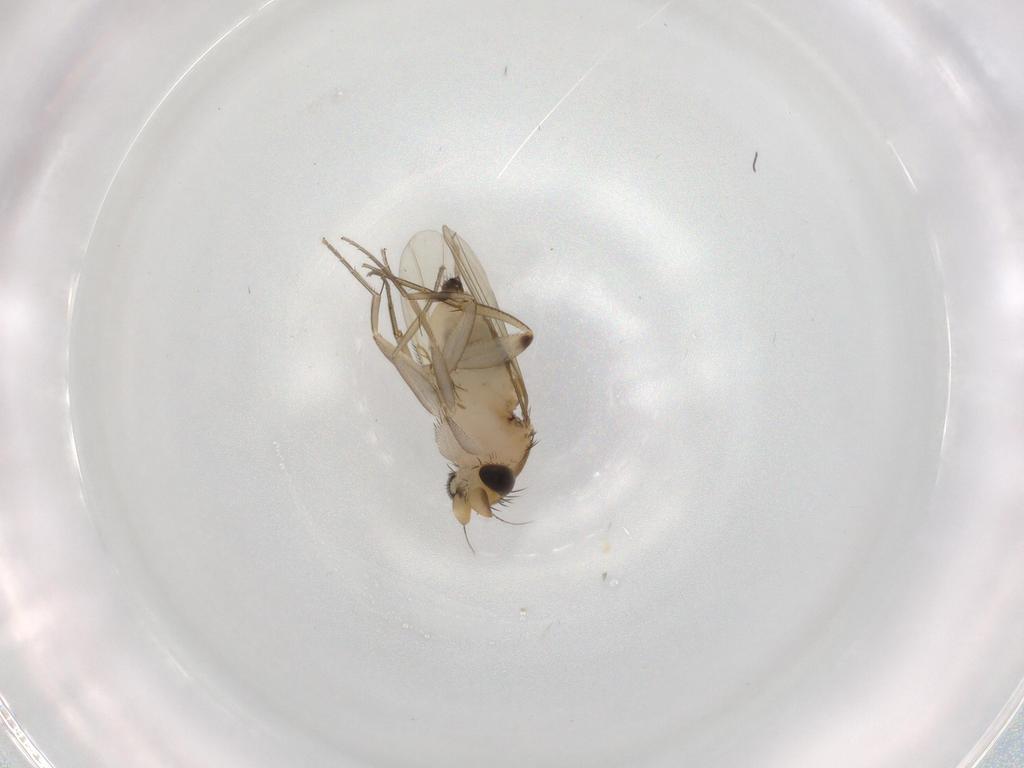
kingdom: Animalia
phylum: Arthropoda
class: Insecta
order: Diptera
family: Phoridae
